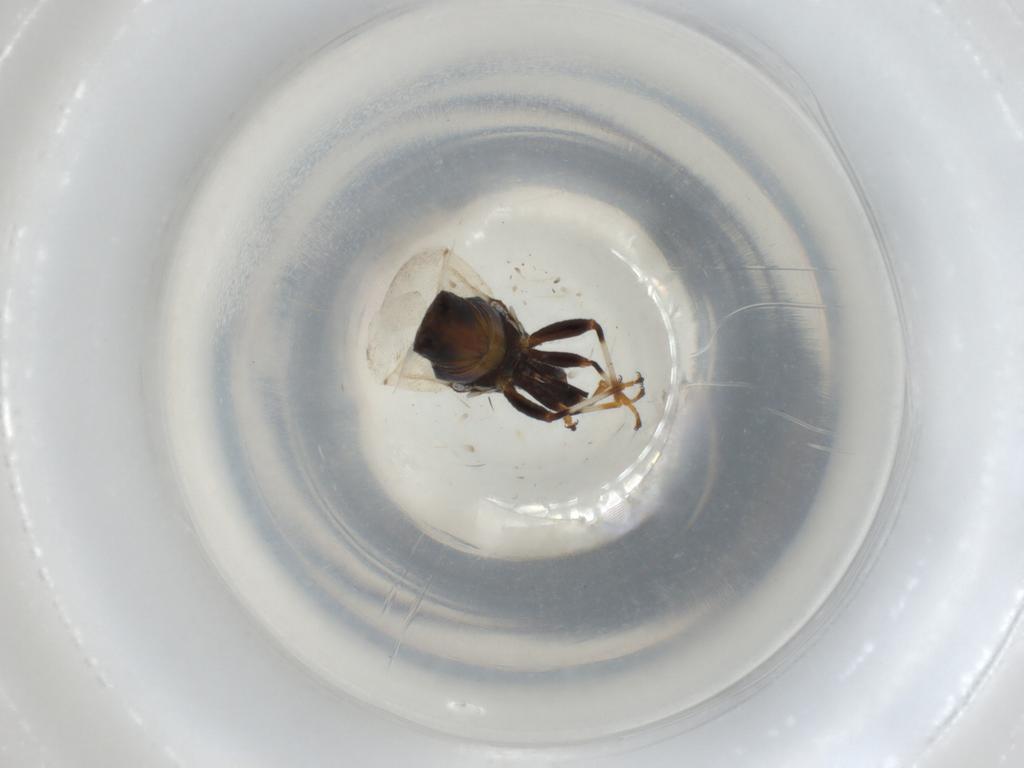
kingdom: Animalia
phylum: Arthropoda
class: Insecta
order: Hemiptera
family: Oxycarenidae
